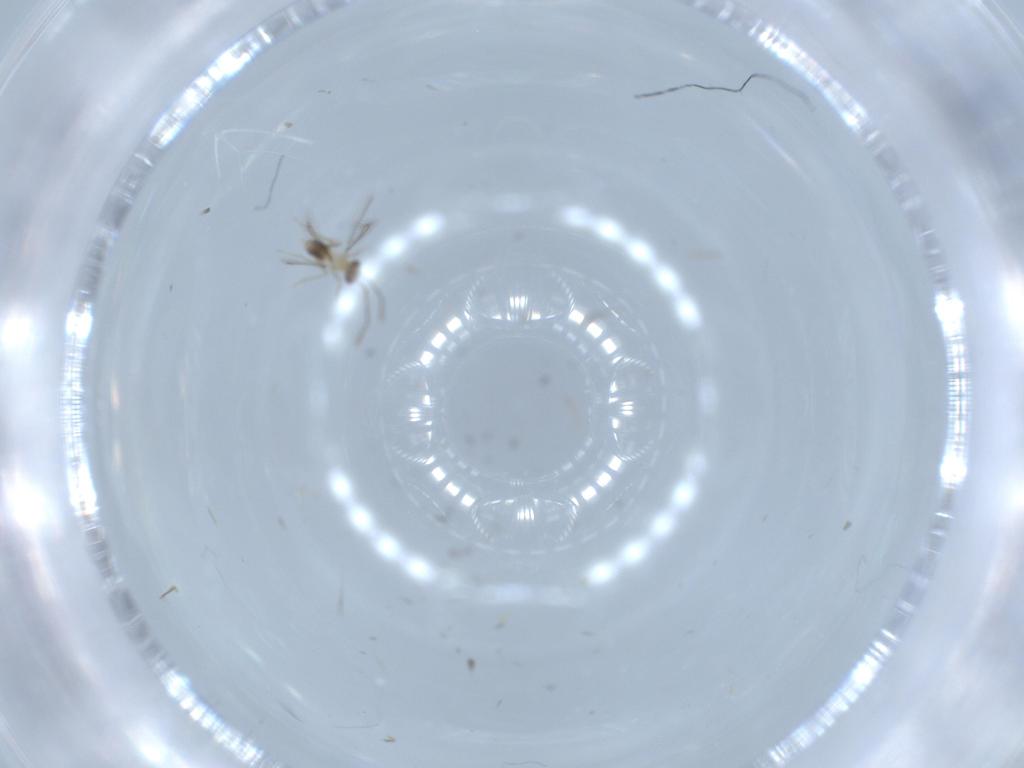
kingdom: Animalia
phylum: Arthropoda
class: Insecta
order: Hymenoptera
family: Mymaridae
